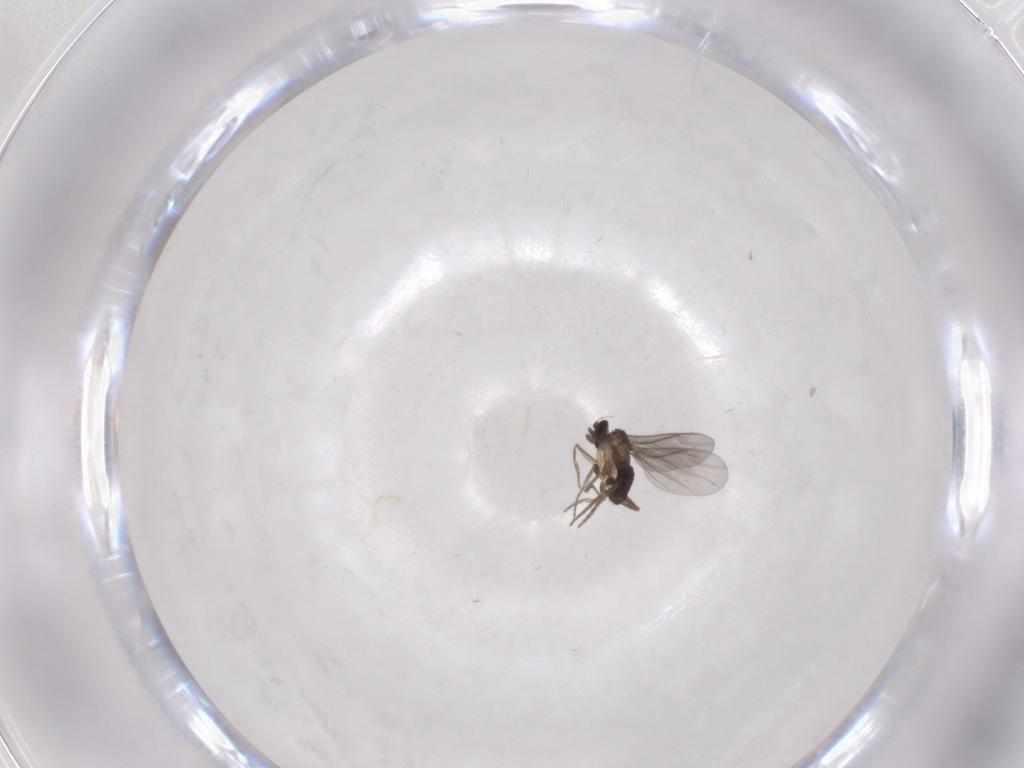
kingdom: Animalia
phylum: Arthropoda
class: Insecta
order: Diptera
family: Phoridae
